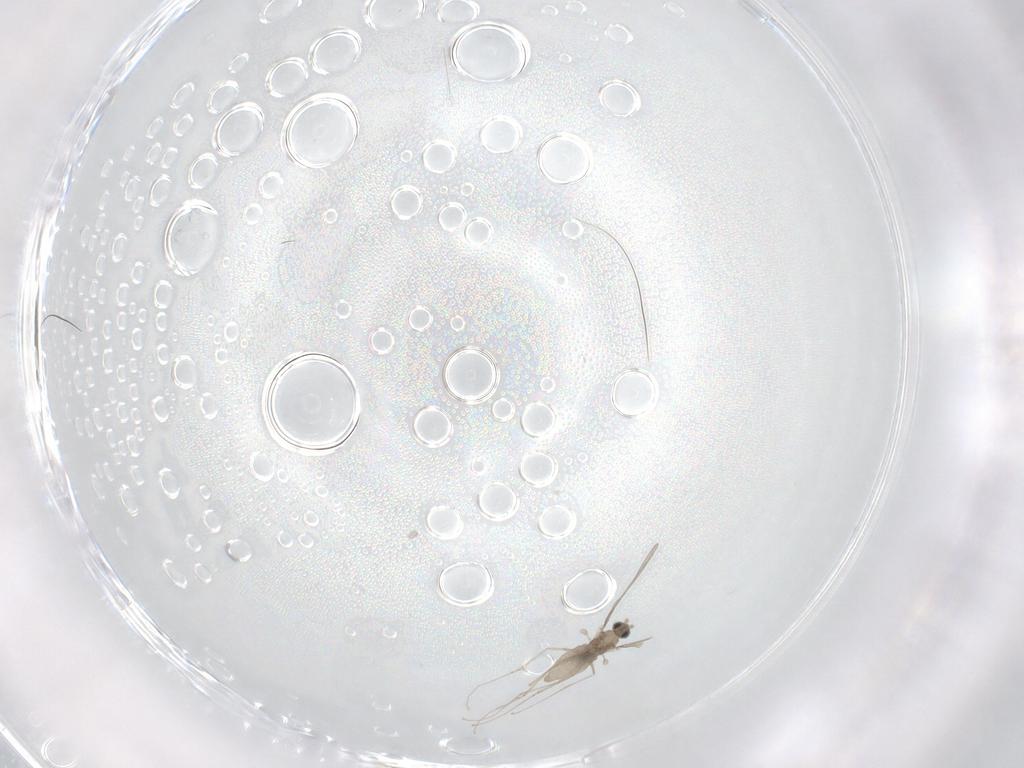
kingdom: Animalia
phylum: Arthropoda
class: Insecta
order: Diptera
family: Cecidomyiidae
